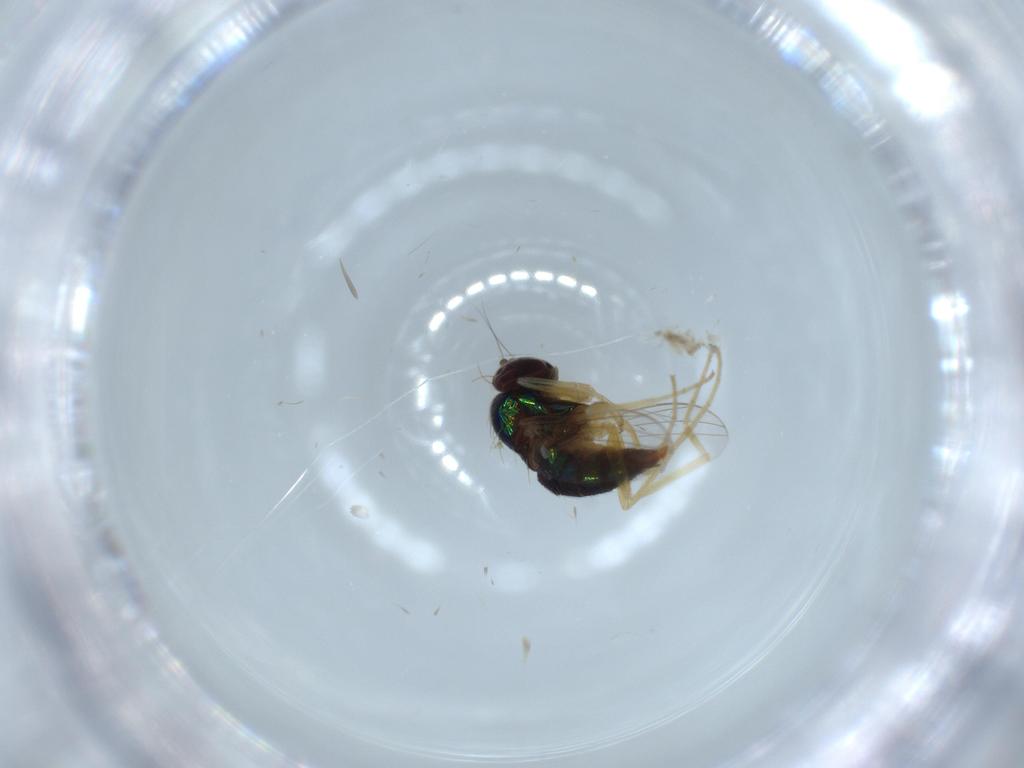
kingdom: Animalia
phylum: Arthropoda
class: Insecta
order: Diptera
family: Dolichopodidae
